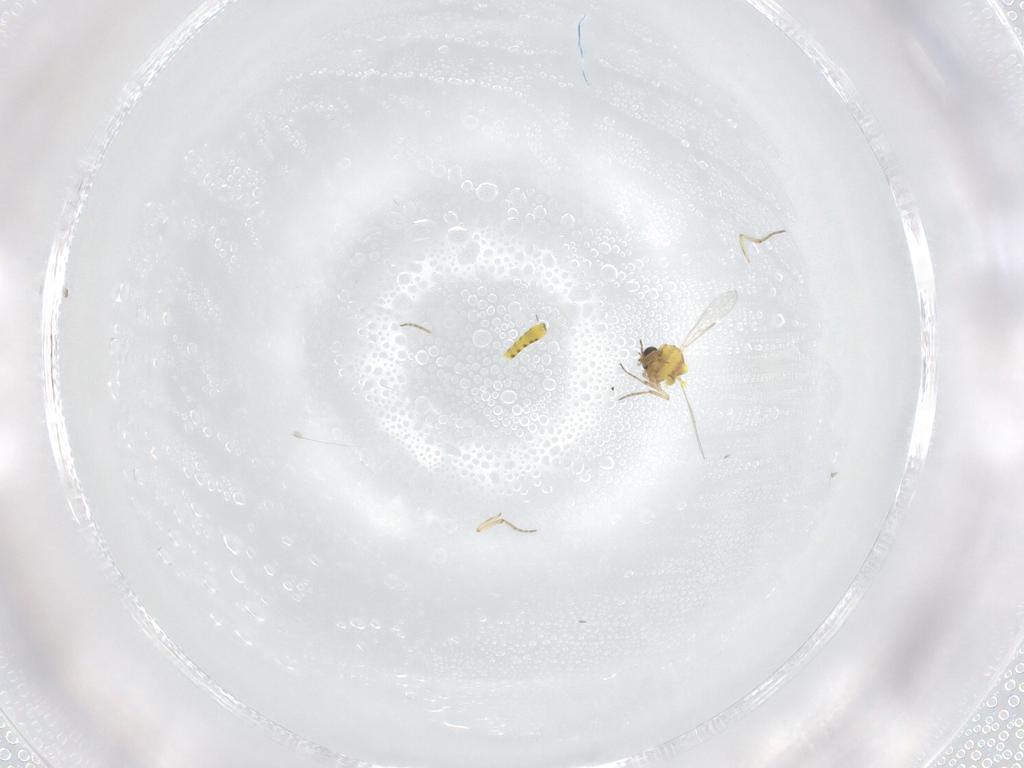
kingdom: Animalia
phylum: Arthropoda
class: Insecta
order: Diptera
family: Ceratopogonidae
